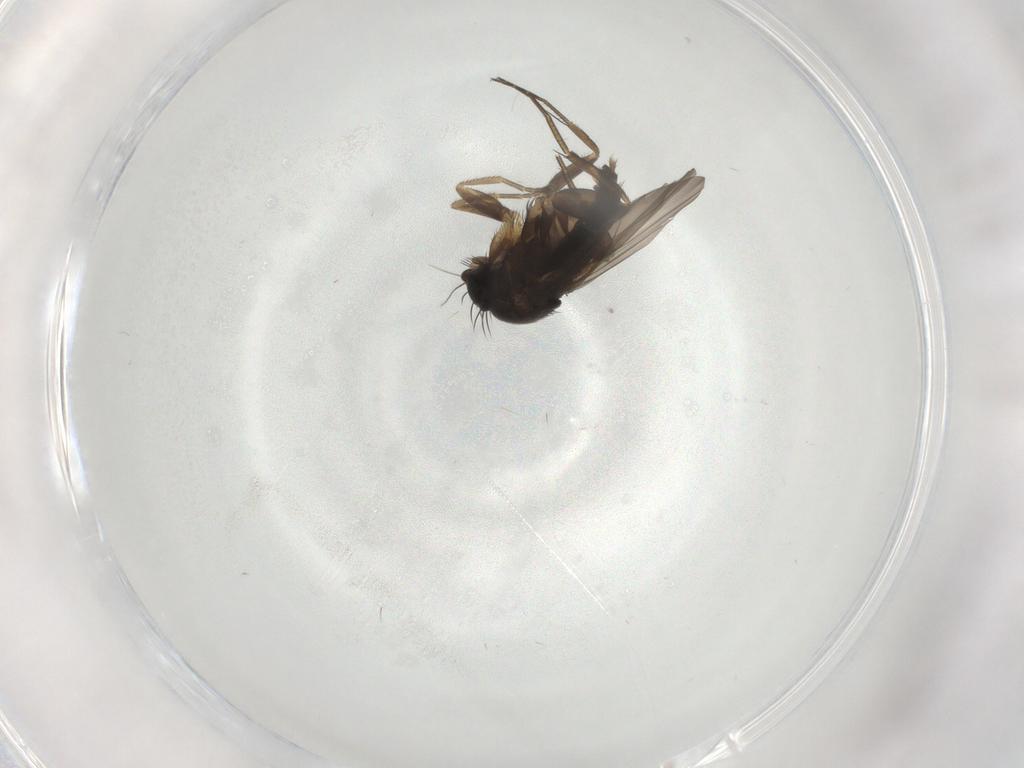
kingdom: Animalia
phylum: Arthropoda
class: Insecta
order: Diptera
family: Phoridae
